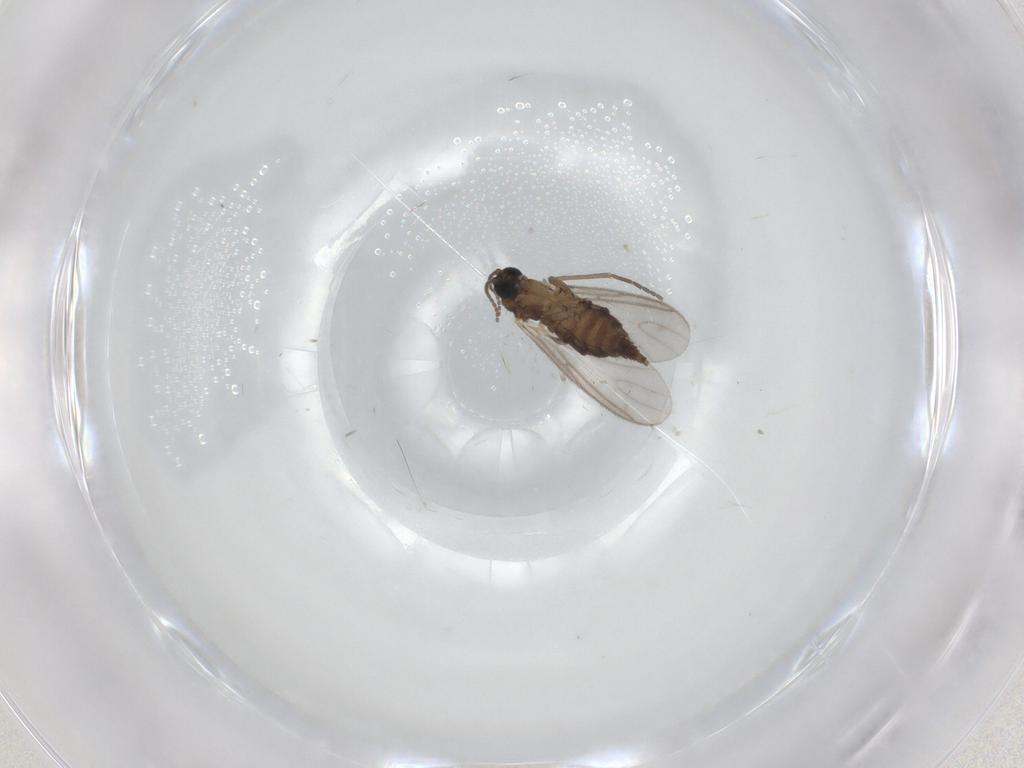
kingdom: Animalia
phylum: Arthropoda
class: Insecta
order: Diptera
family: Sciaridae
